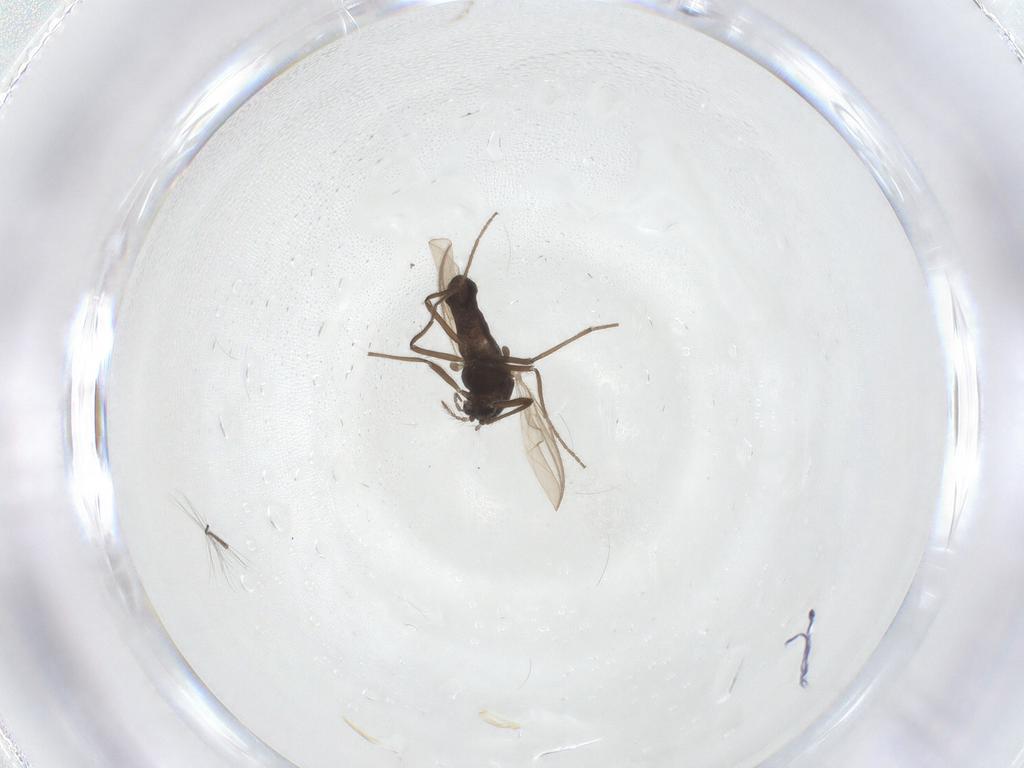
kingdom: Animalia
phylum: Arthropoda
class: Insecta
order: Diptera
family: Chironomidae
